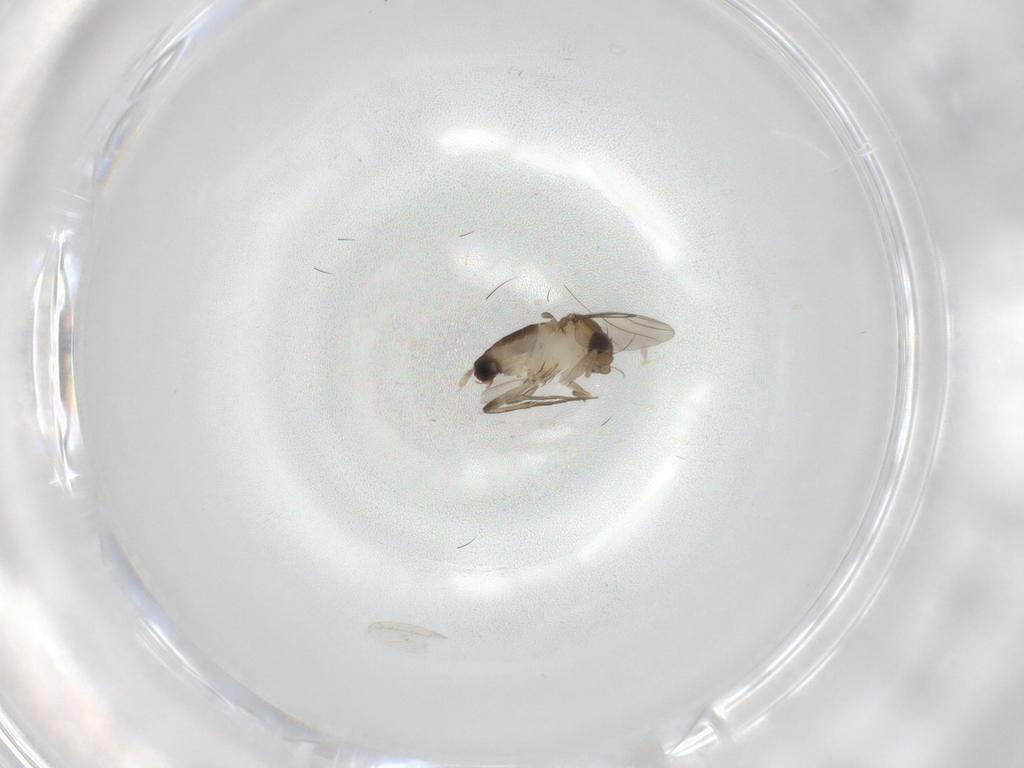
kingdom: Animalia
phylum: Arthropoda
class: Insecta
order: Diptera
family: Phoridae
